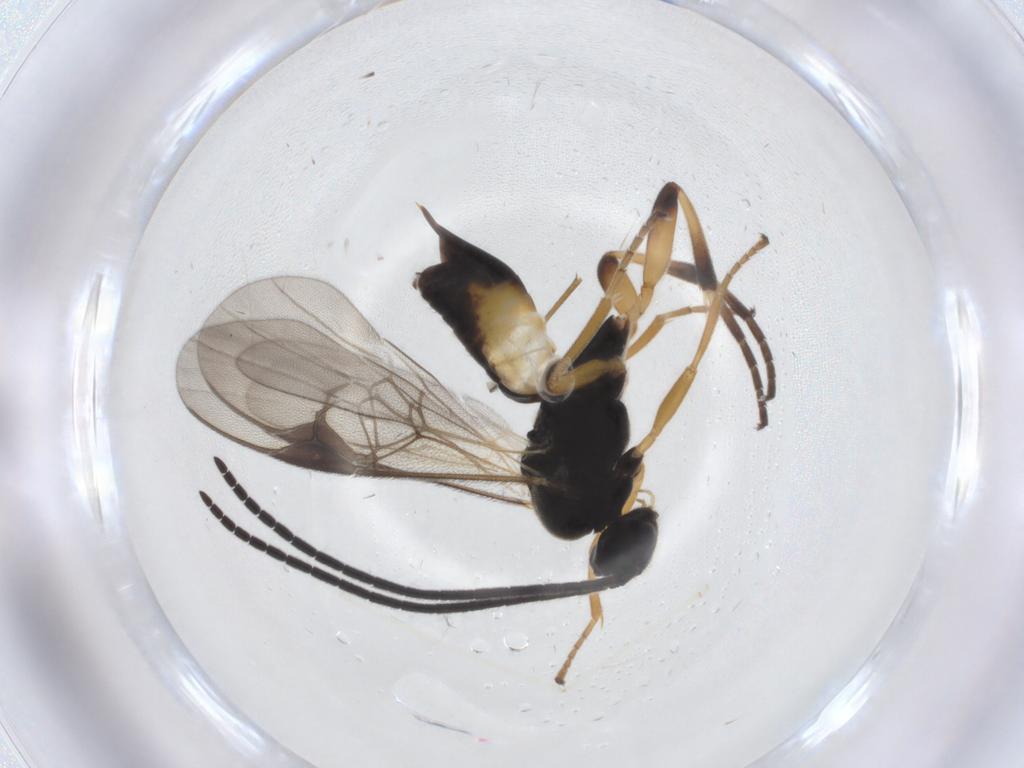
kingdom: Animalia
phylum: Arthropoda
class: Insecta
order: Hymenoptera
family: Braconidae
